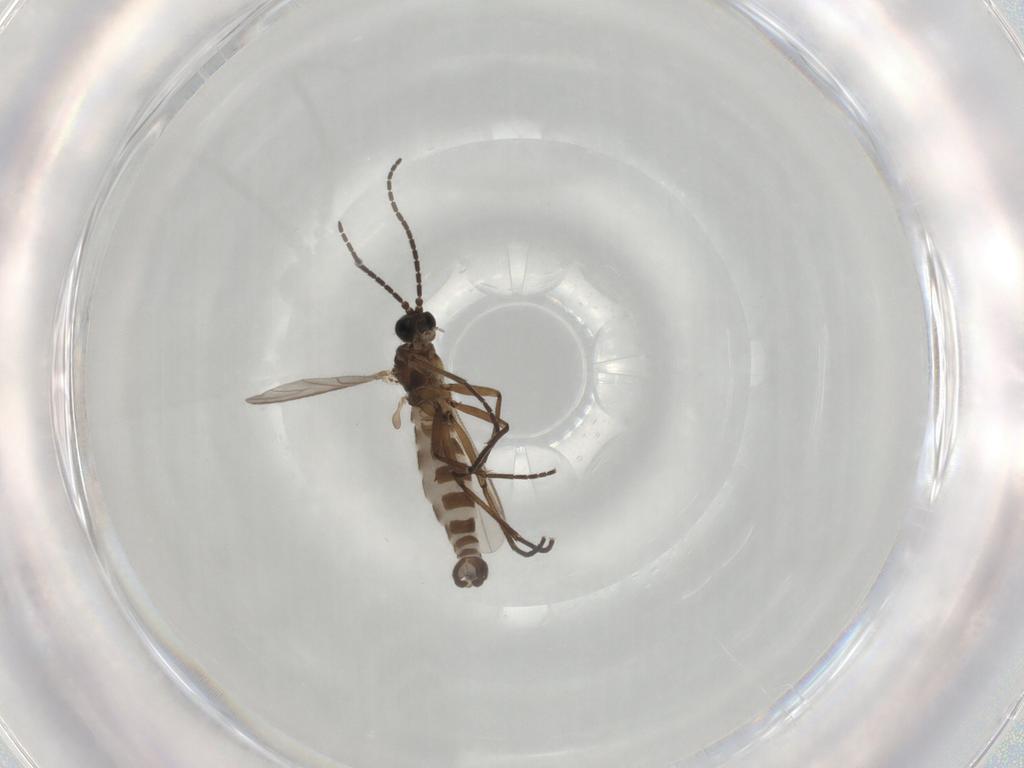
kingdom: Animalia
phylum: Arthropoda
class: Insecta
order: Diptera
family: Sciaridae
